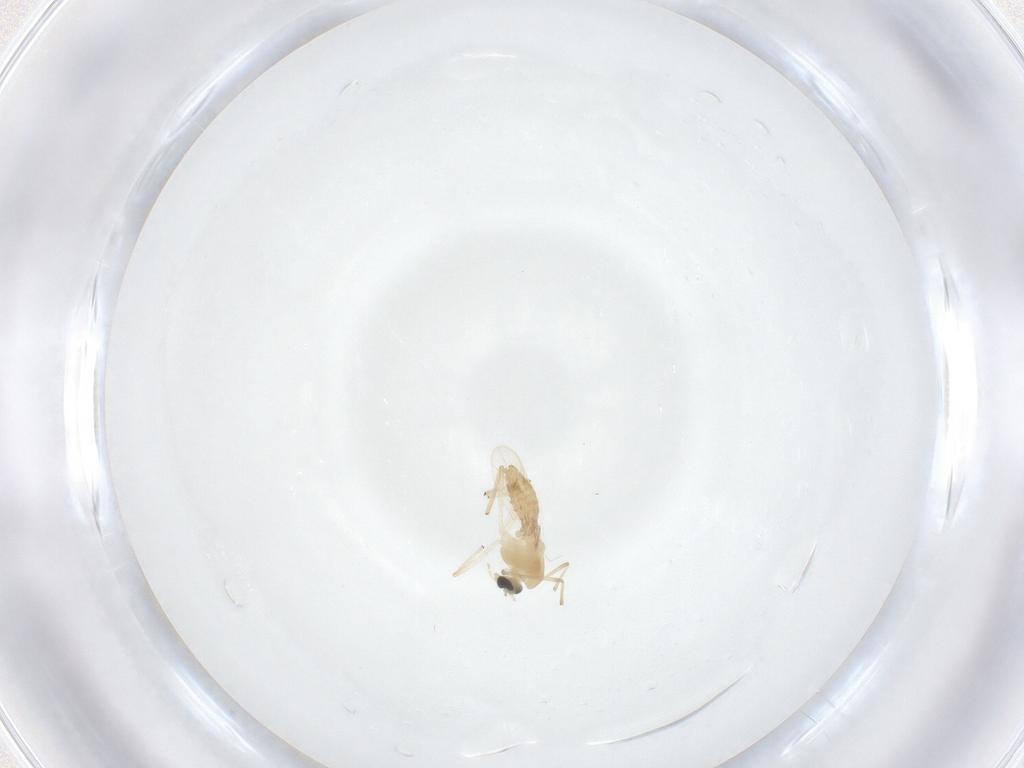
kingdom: Animalia
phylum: Arthropoda
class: Insecta
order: Diptera
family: Chironomidae
